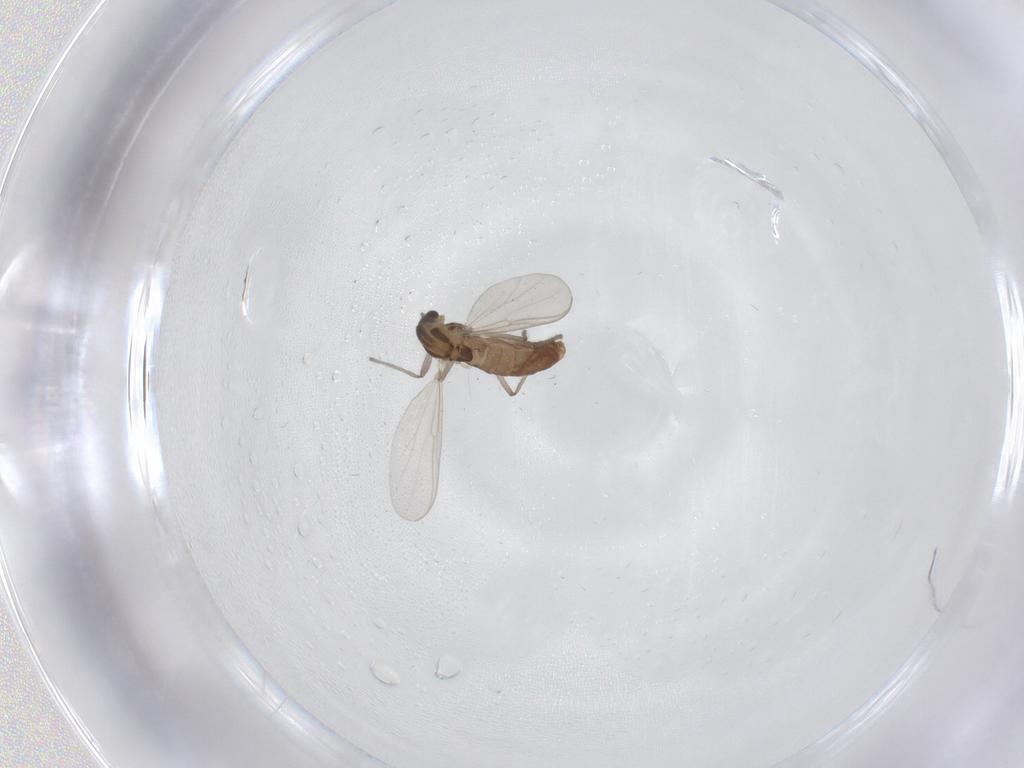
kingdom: Animalia
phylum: Arthropoda
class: Insecta
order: Diptera
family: Chironomidae
